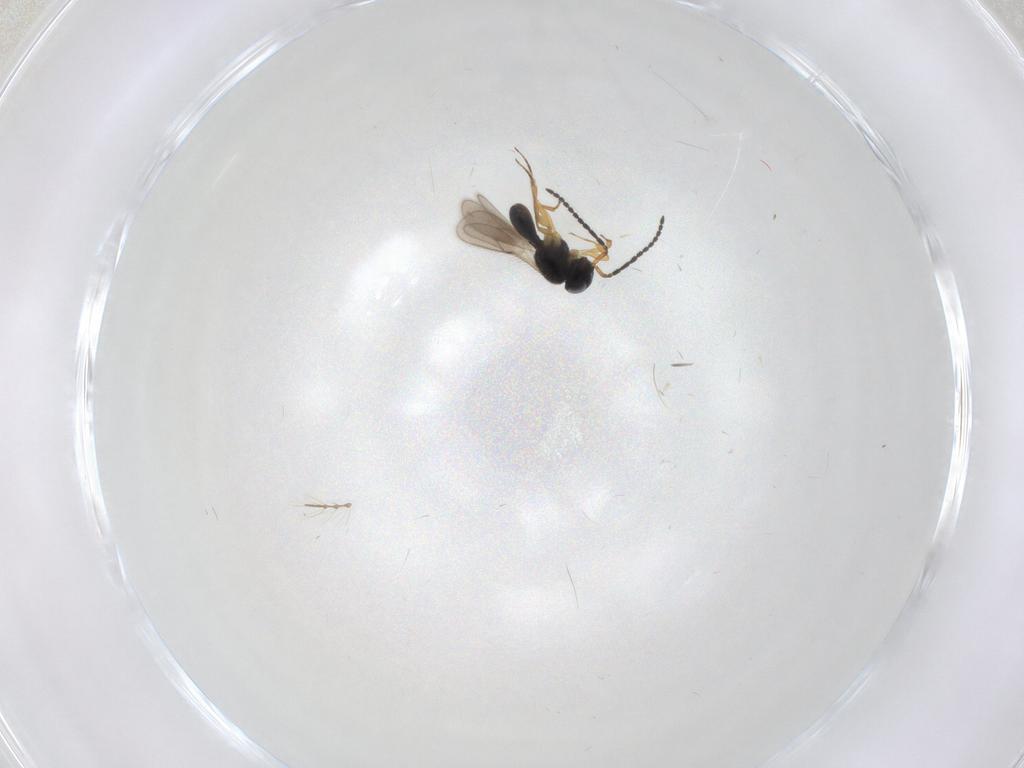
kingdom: Animalia
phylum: Arthropoda
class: Insecta
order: Hymenoptera
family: Scelionidae
